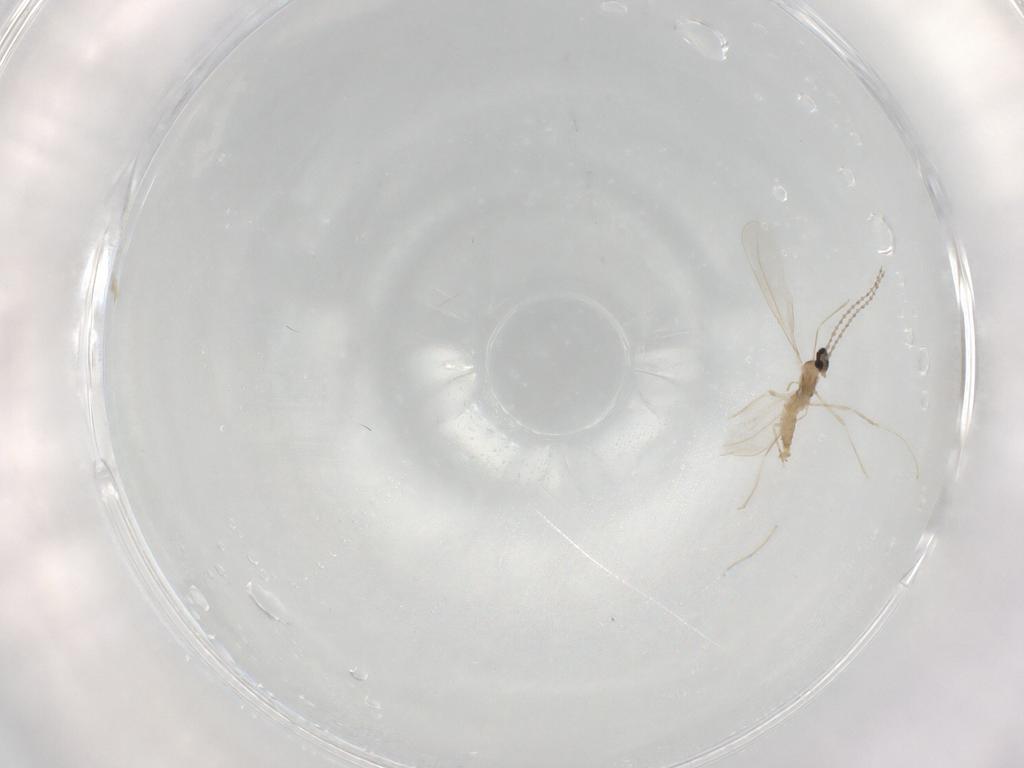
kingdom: Animalia
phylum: Arthropoda
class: Insecta
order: Diptera
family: Cecidomyiidae
